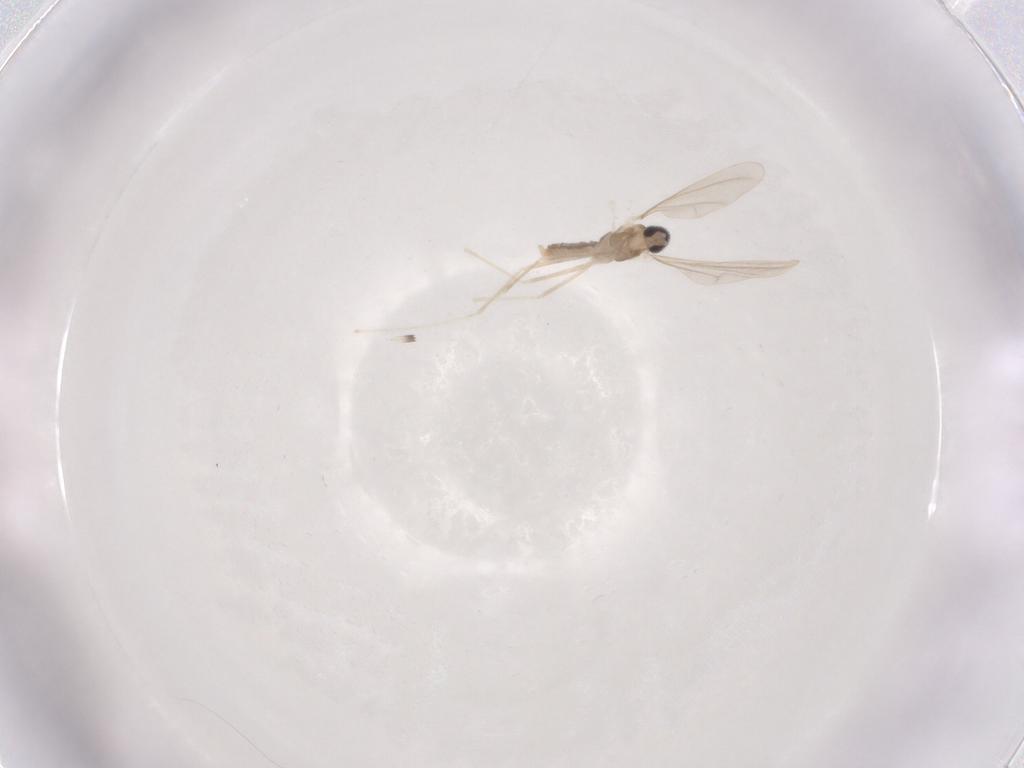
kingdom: Animalia
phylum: Arthropoda
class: Insecta
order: Diptera
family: Cecidomyiidae
